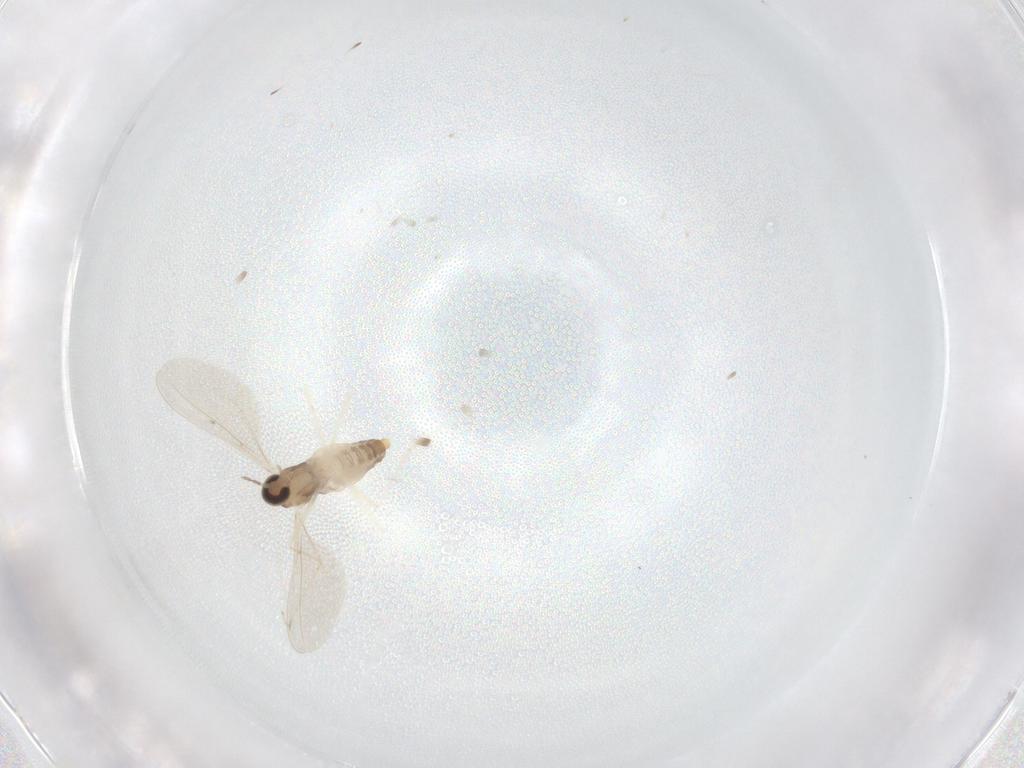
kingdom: Animalia
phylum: Arthropoda
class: Insecta
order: Diptera
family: Cecidomyiidae
